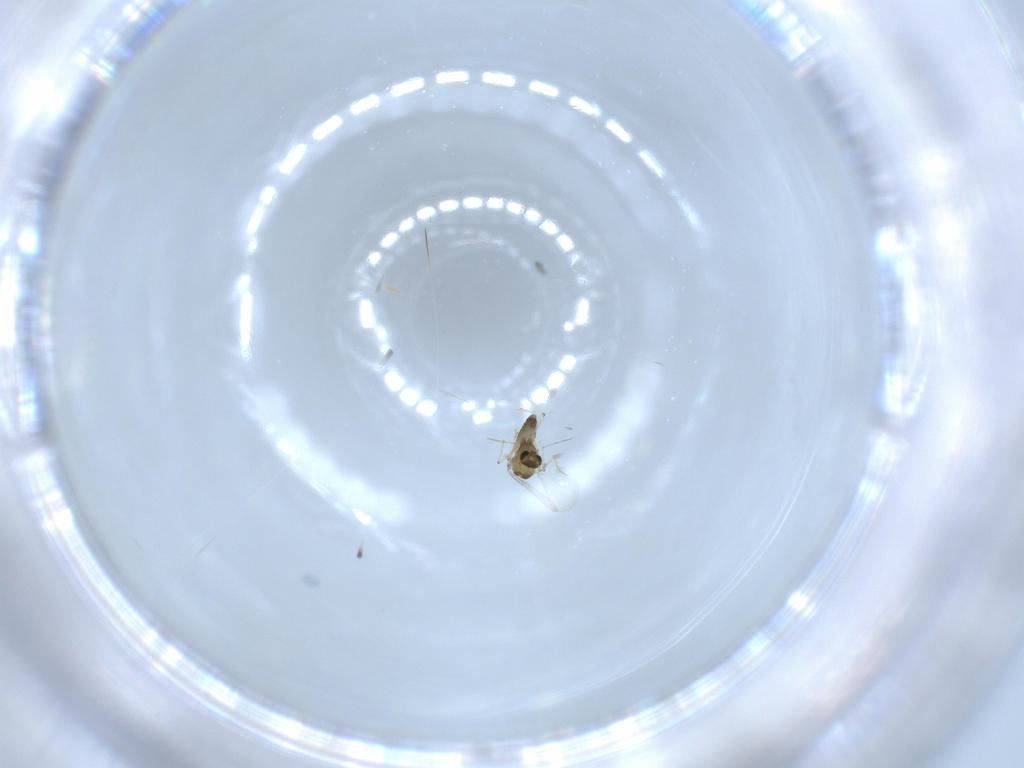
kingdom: Animalia
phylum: Arthropoda
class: Insecta
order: Diptera
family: Chironomidae
